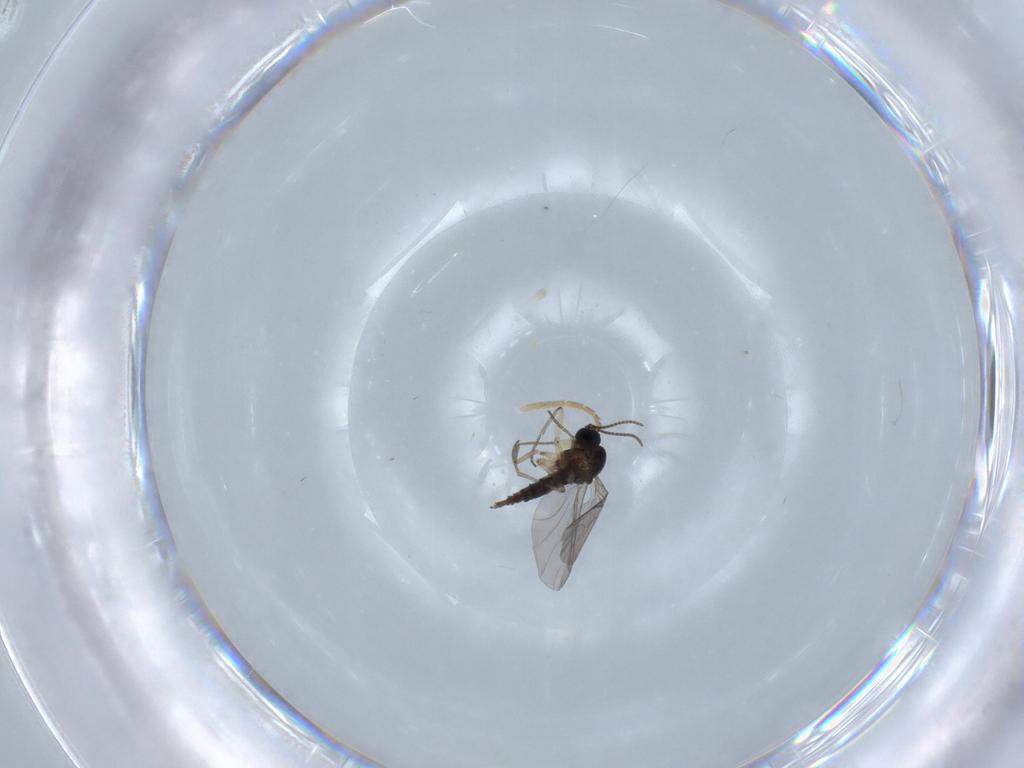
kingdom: Animalia
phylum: Arthropoda
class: Insecta
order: Diptera
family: Sciaridae
